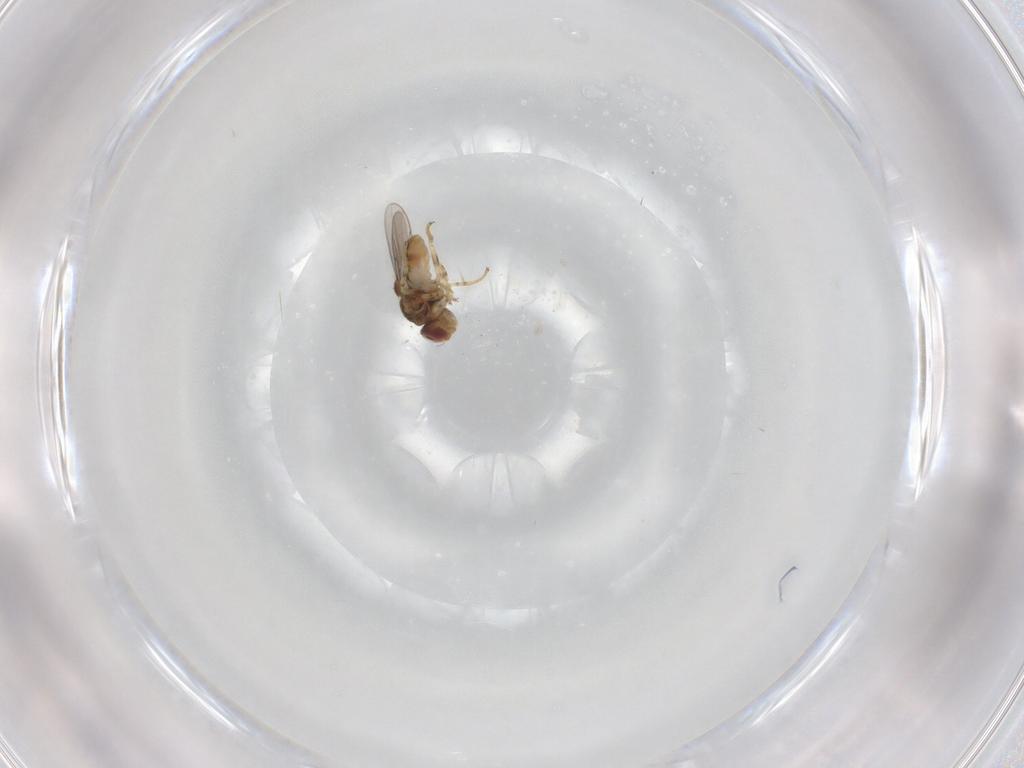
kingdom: Animalia
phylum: Arthropoda
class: Insecta
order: Diptera
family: Chloropidae
